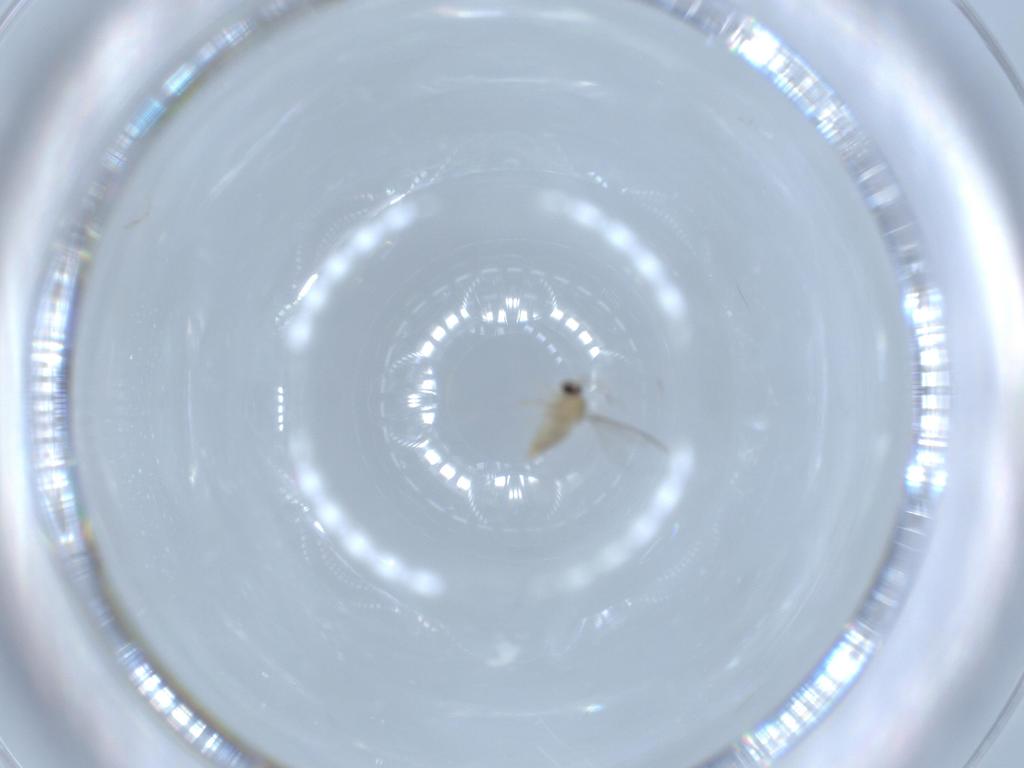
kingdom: Animalia
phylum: Arthropoda
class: Insecta
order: Diptera
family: Cecidomyiidae
